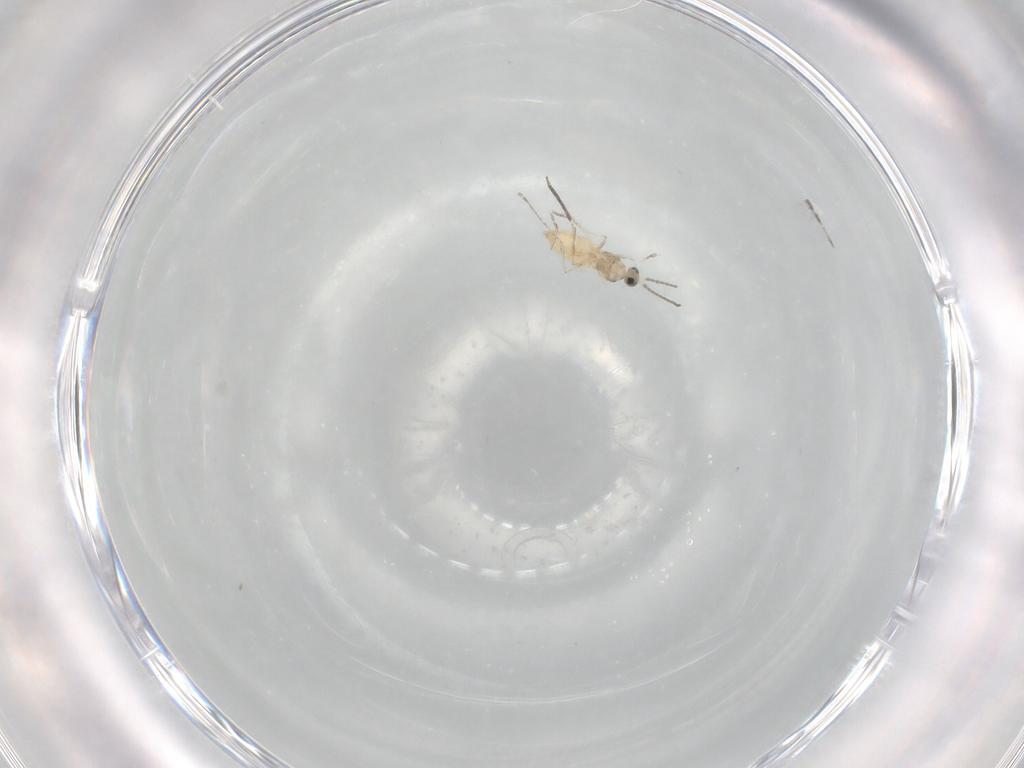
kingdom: Animalia
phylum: Arthropoda
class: Insecta
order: Diptera
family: Cecidomyiidae
